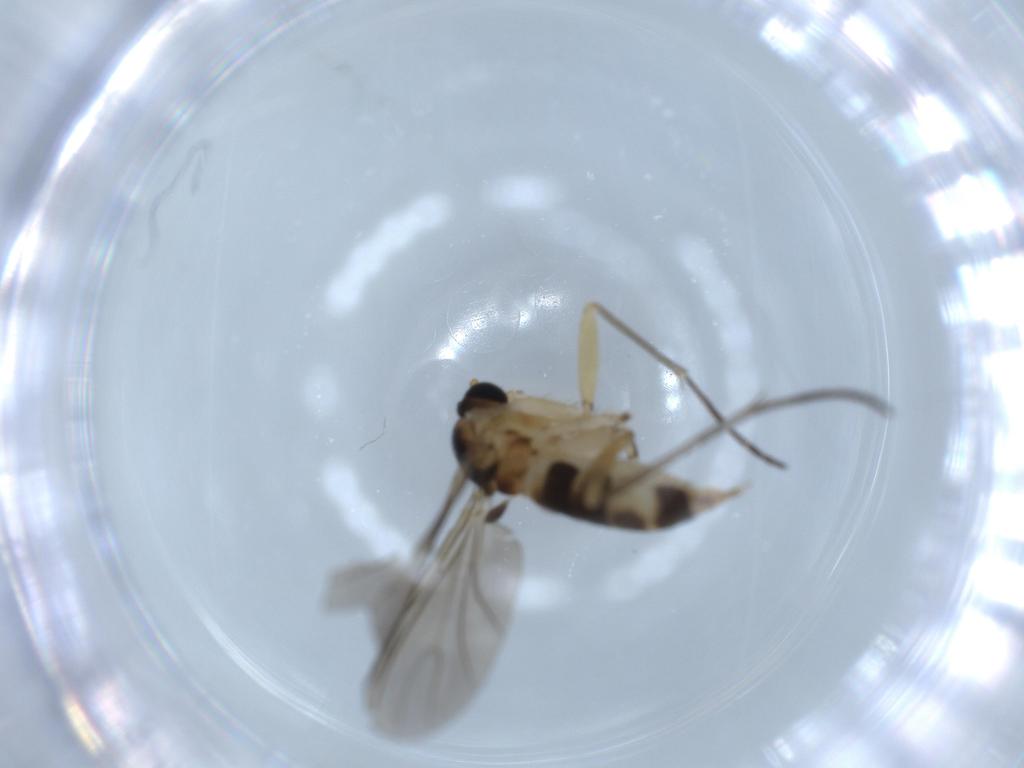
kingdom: Animalia
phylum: Arthropoda
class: Insecta
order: Diptera
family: Sciaridae
